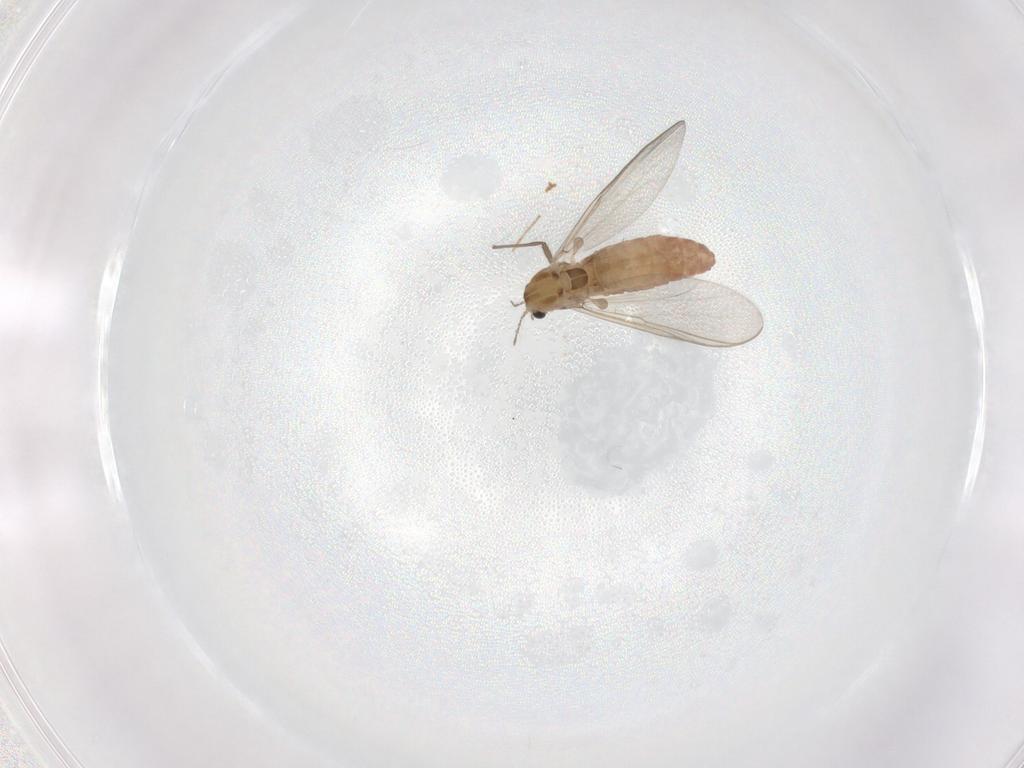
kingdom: Animalia
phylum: Arthropoda
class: Insecta
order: Diptera
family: Chironomidae
